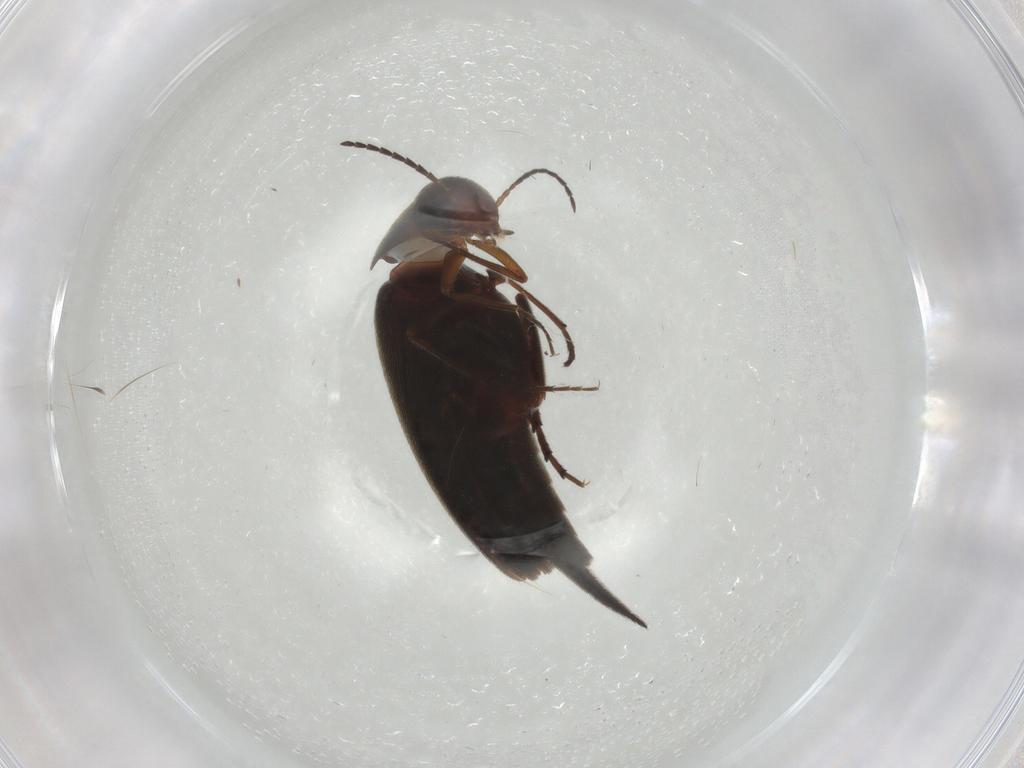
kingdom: Animalia
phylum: Arthropoda
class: Insecta
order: Coleoptera
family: Mordellidae
